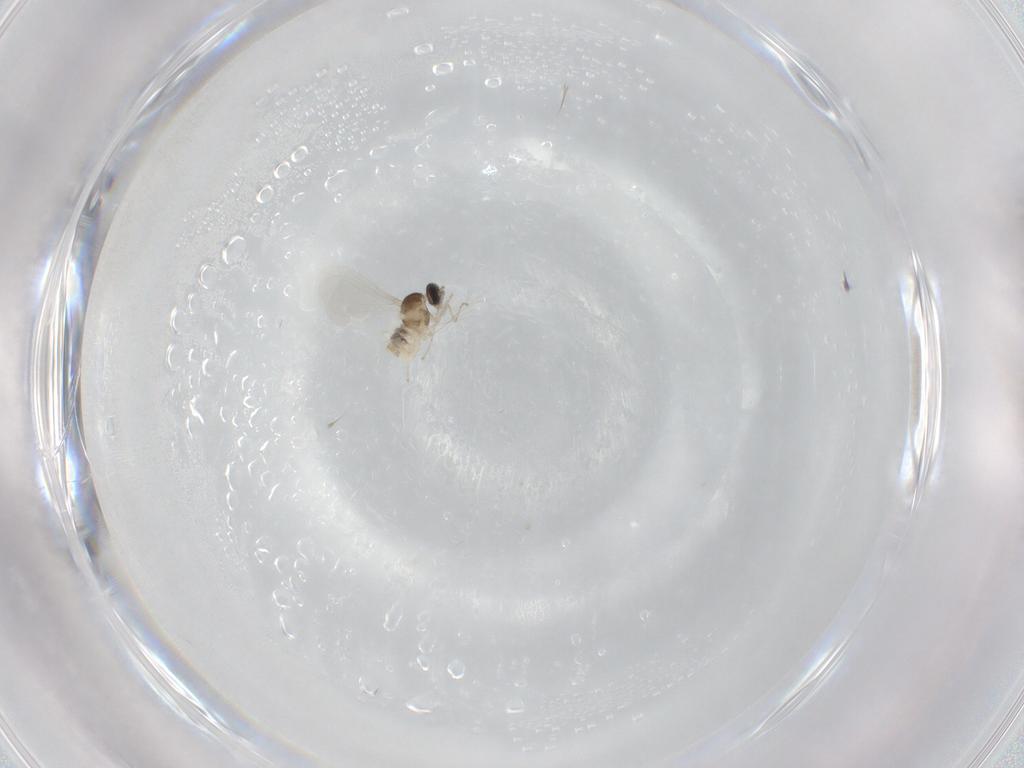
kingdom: Animalia
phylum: Arthropoda
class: Insecta
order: Diptera
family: Cecidomyiidae
